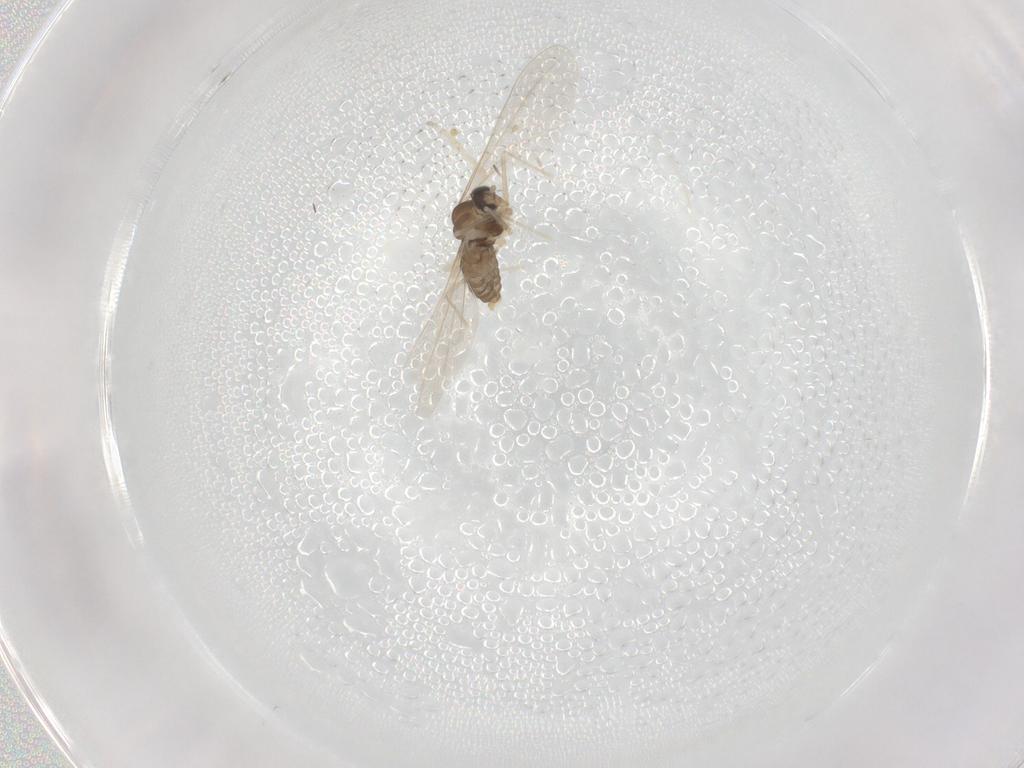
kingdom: Animalia
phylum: Arthropoda
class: Insecta
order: Diptera
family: Cecidomyiidae
